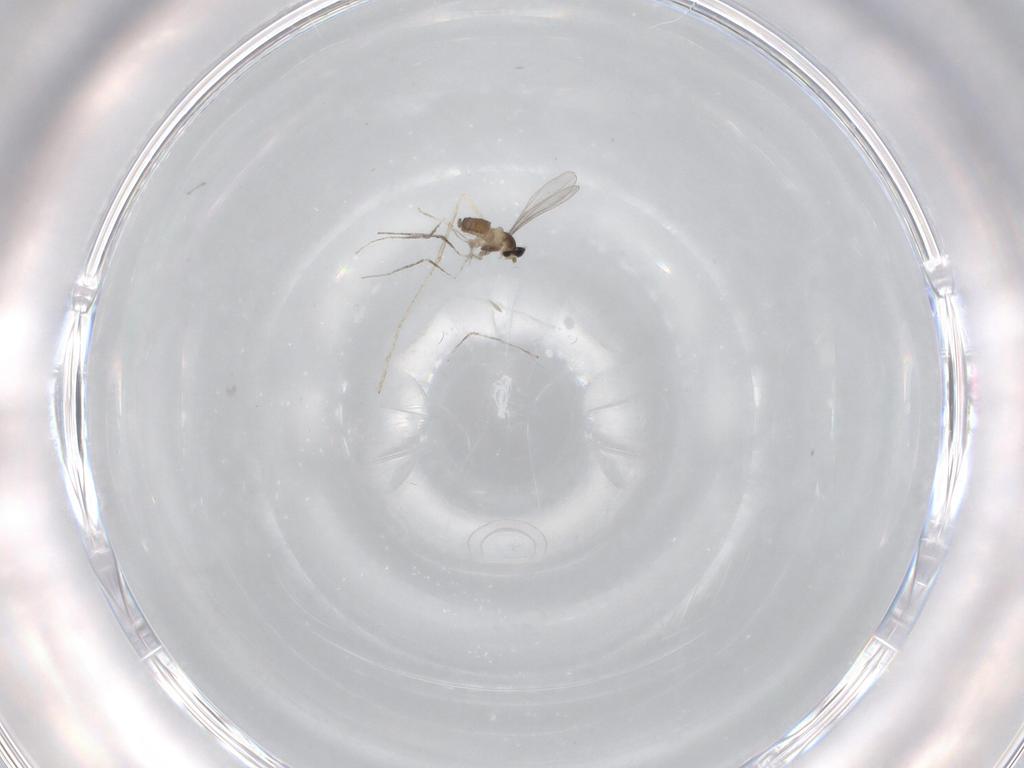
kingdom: Animalia
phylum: Arthropoda
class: Insecta
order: Diptera
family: Cecidomyiidae
